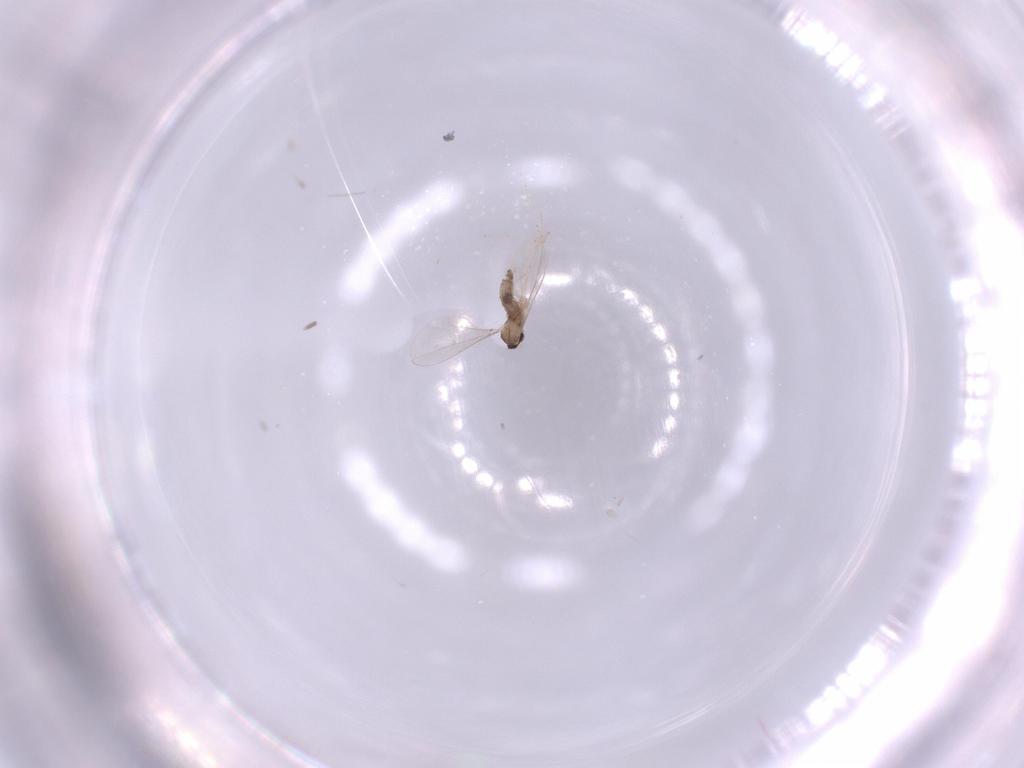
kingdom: Animalia
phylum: Arthropoda
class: Insecta
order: Diptera
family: Cecidomyiidae
